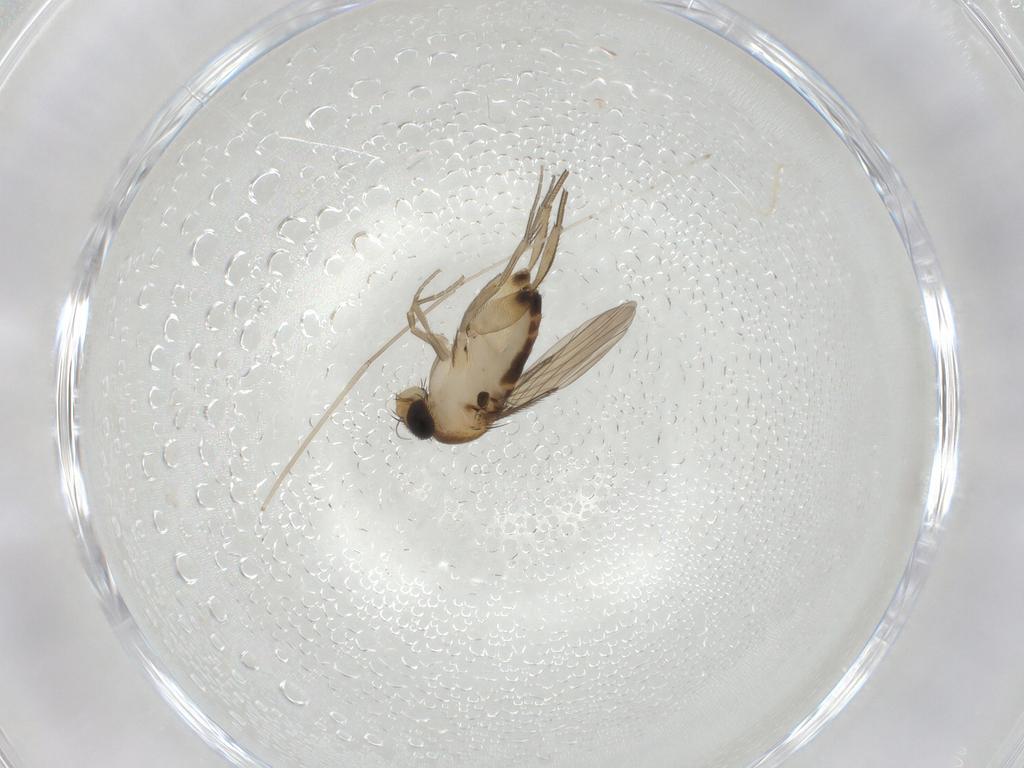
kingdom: Animalia
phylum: Arthropoda
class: Insecta
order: Diptera
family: Phoridae
